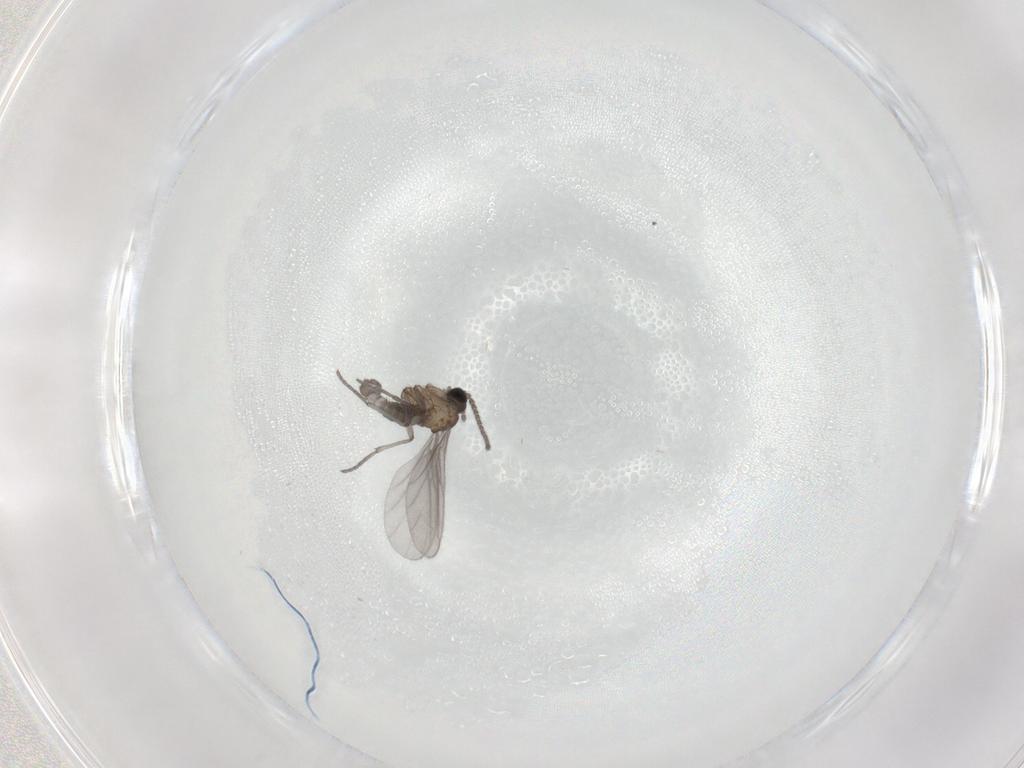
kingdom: Animalia
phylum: Arthropoda
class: Insecta
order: Diptera
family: Sciaridae
